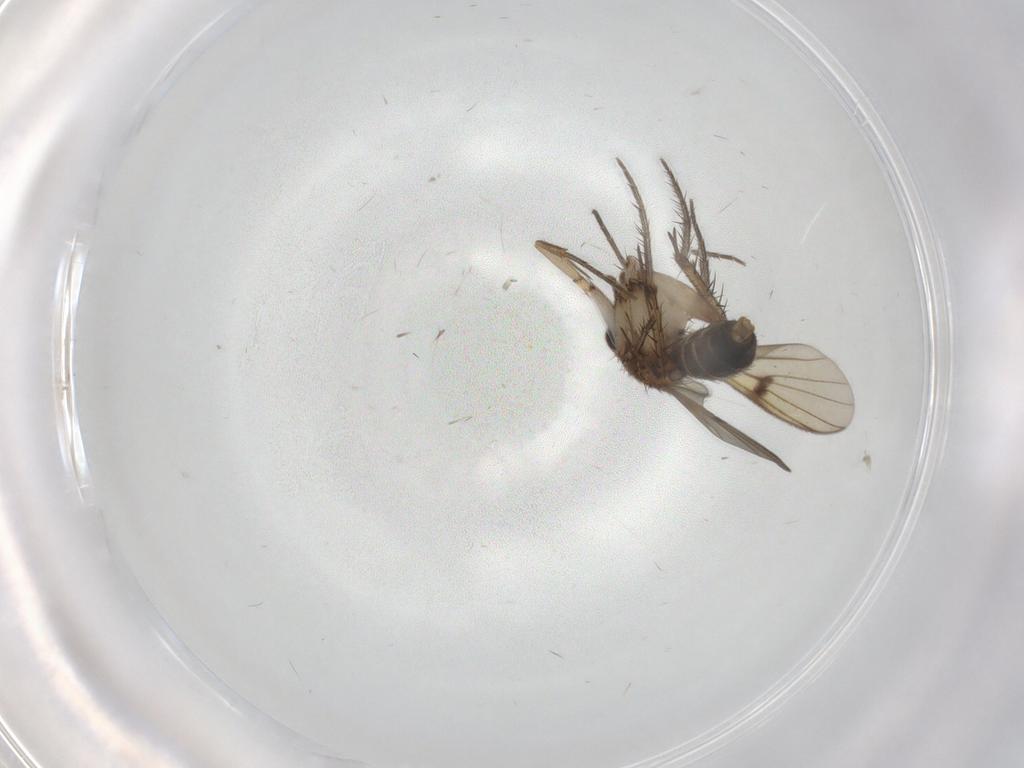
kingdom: Animalia
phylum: Arthropoda
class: Insecta
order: Diptera
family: Mycetophilidae
